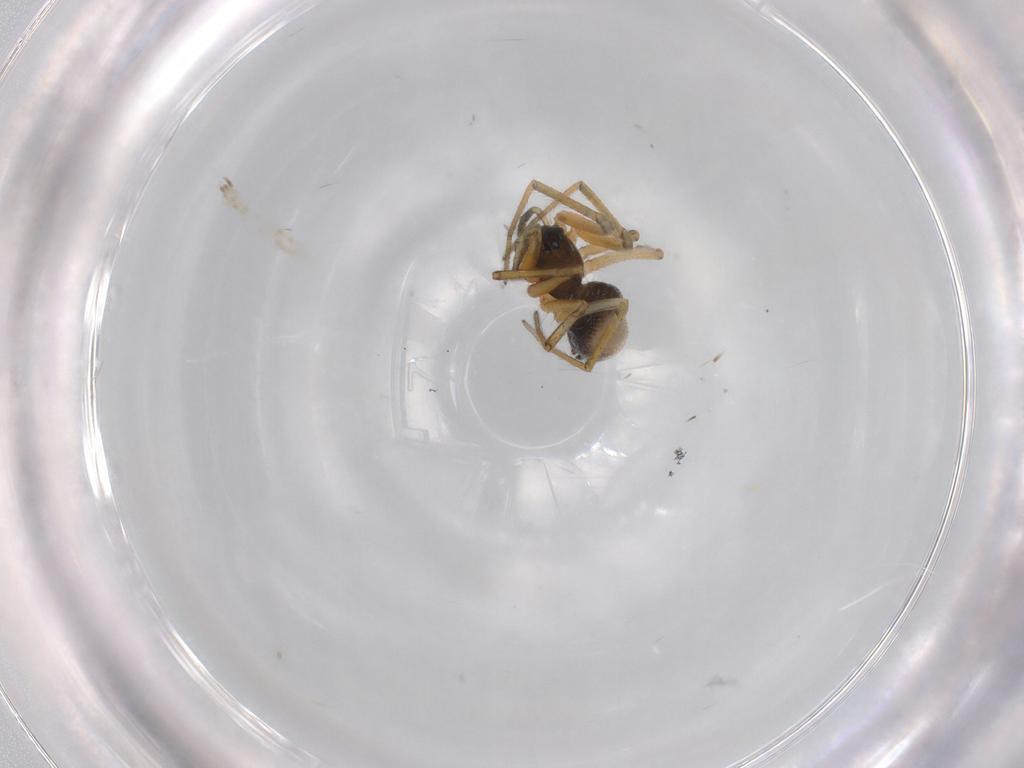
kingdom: Animalia
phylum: Arthropoda
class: Arachnida
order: Araneae
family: Linyphiidae
